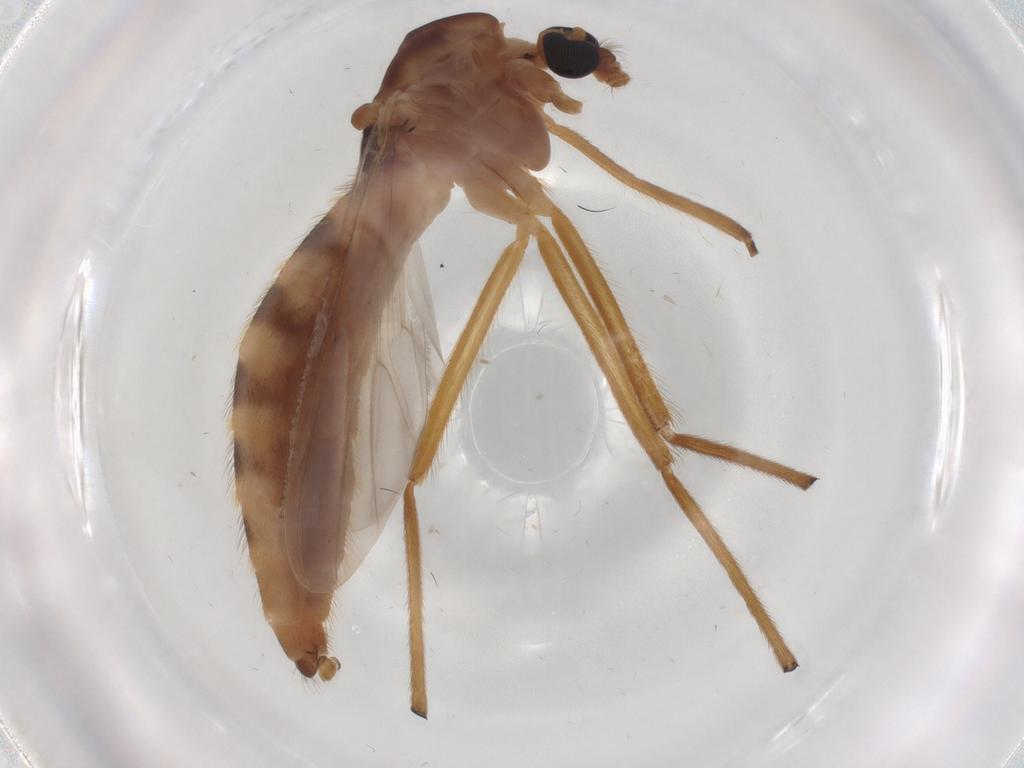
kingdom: Animalia
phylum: Arthropoda
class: Insecta
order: Diptera
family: Chironomidae
